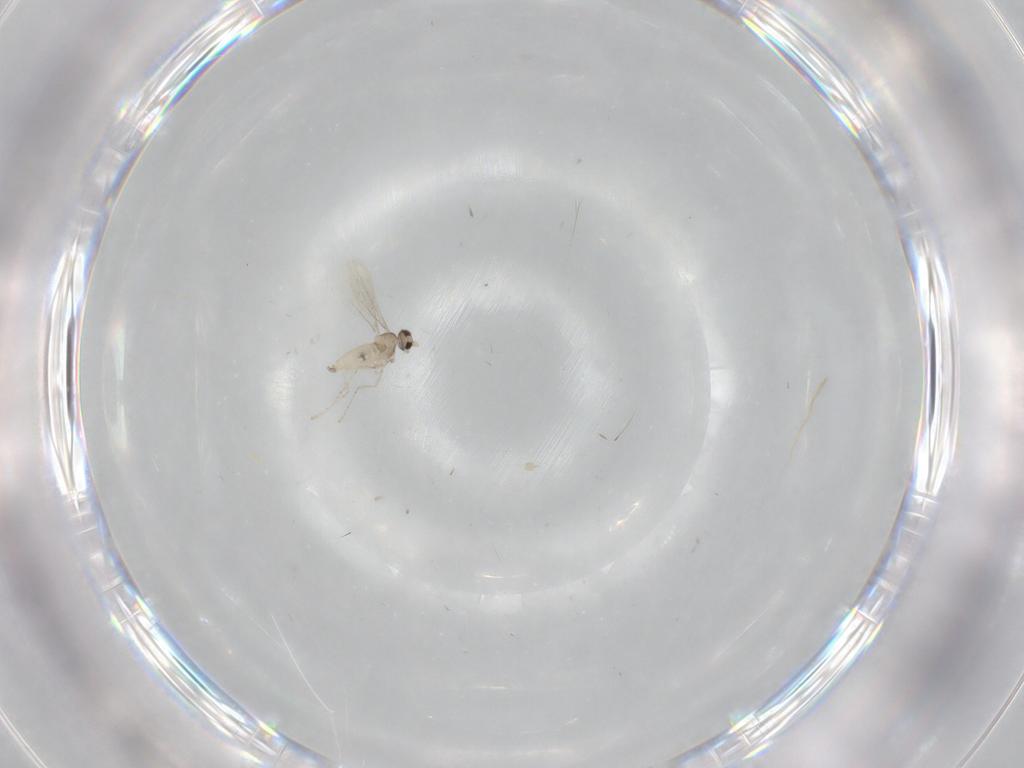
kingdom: Animalia
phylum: Arthropoda
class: Insecta
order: Diptera
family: Cecidomyiidae
